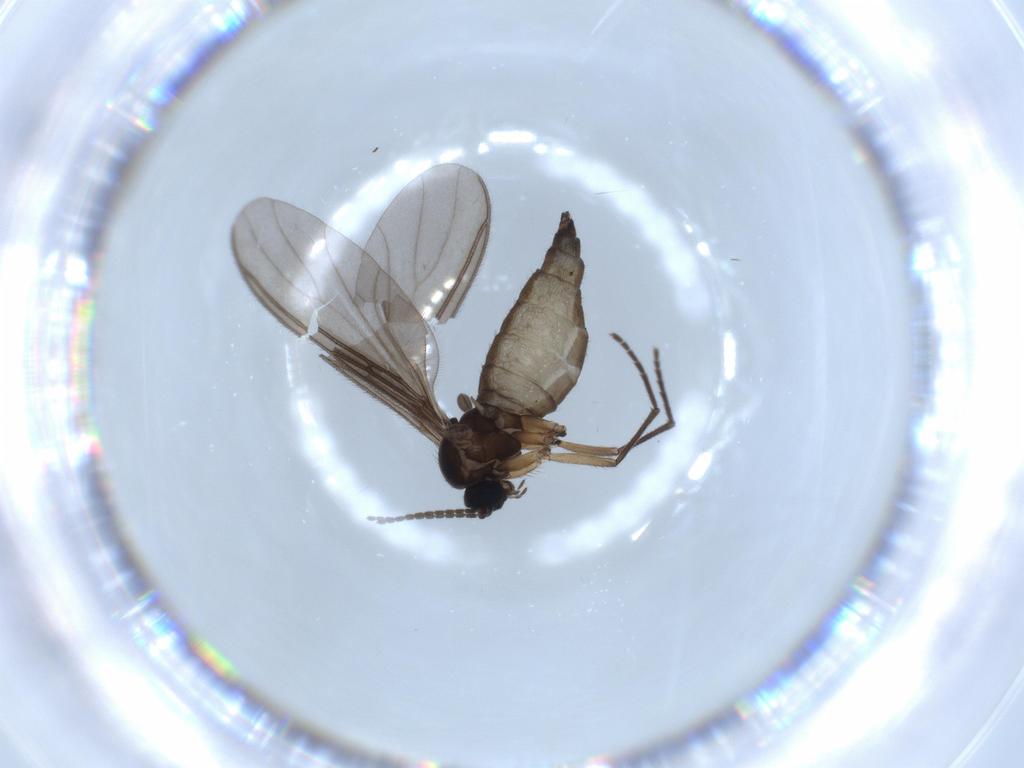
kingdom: Animalia
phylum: Arthropoda
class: Insecta
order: Diptera
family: Sciaridae
